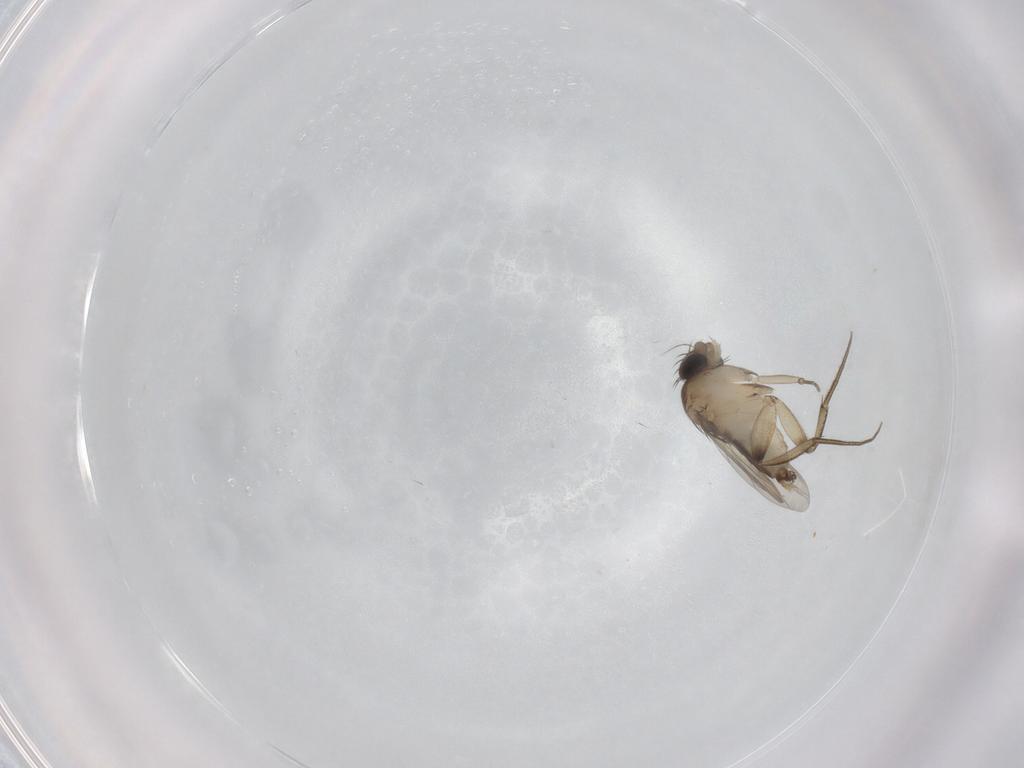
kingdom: Animalia
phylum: Arthropoda
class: Insecta
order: Diptera
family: Phoridae
